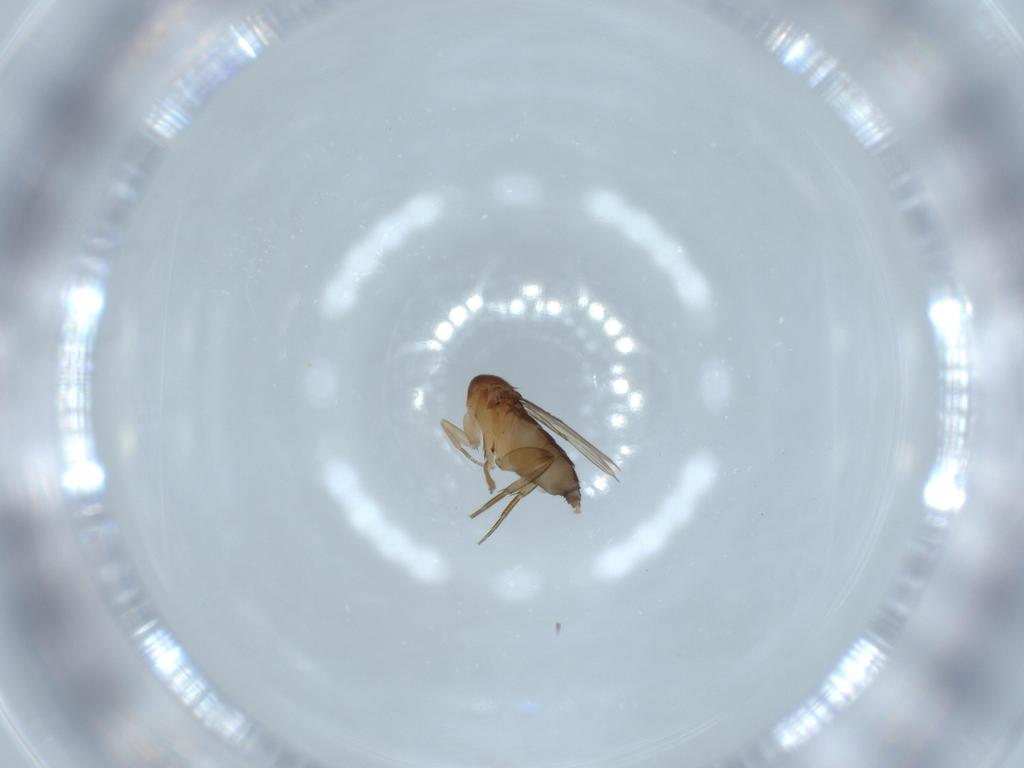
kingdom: Animalia
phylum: Arthropoda
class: Insecta
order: Diptera
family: Phoridae
